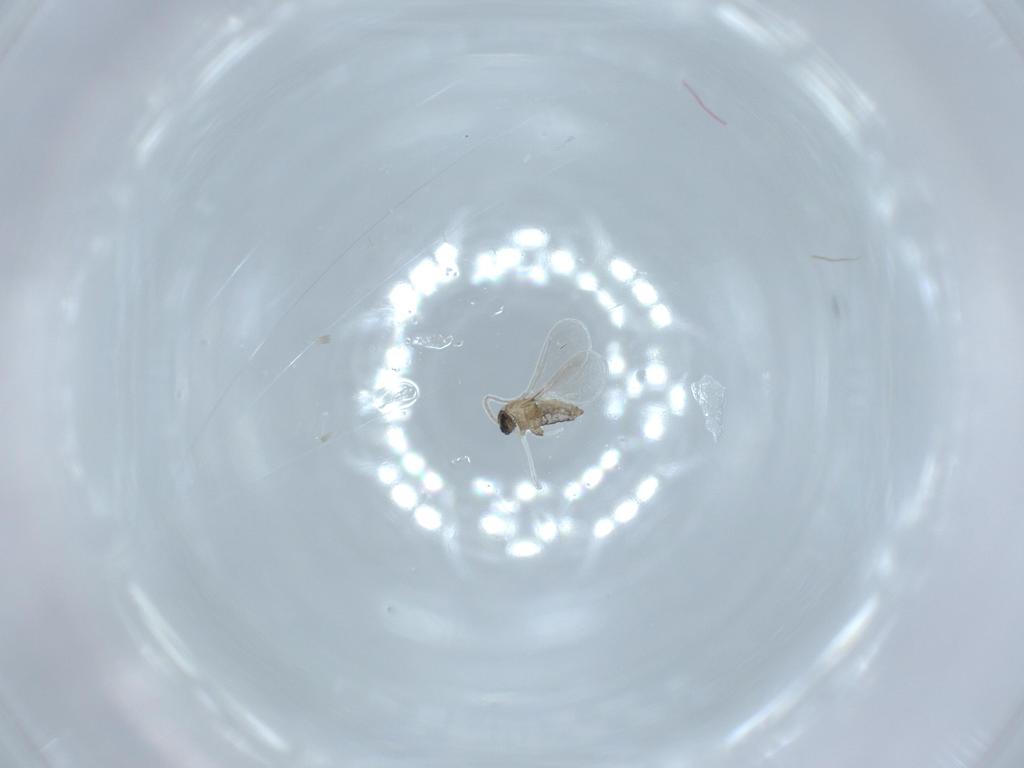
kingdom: Animalia
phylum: Arthropoda
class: Insecta
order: Diptera
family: Cecidomyiidae
